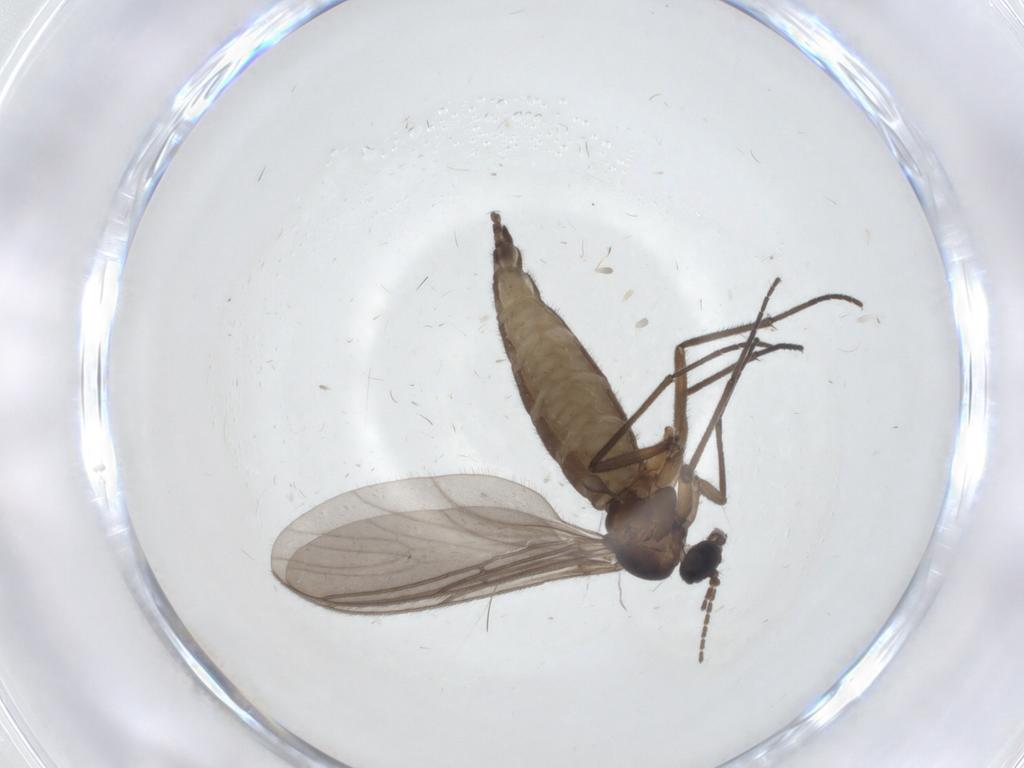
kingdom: Animalia
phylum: Arthropoda
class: Insecta
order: Diptera
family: Sciaridae
